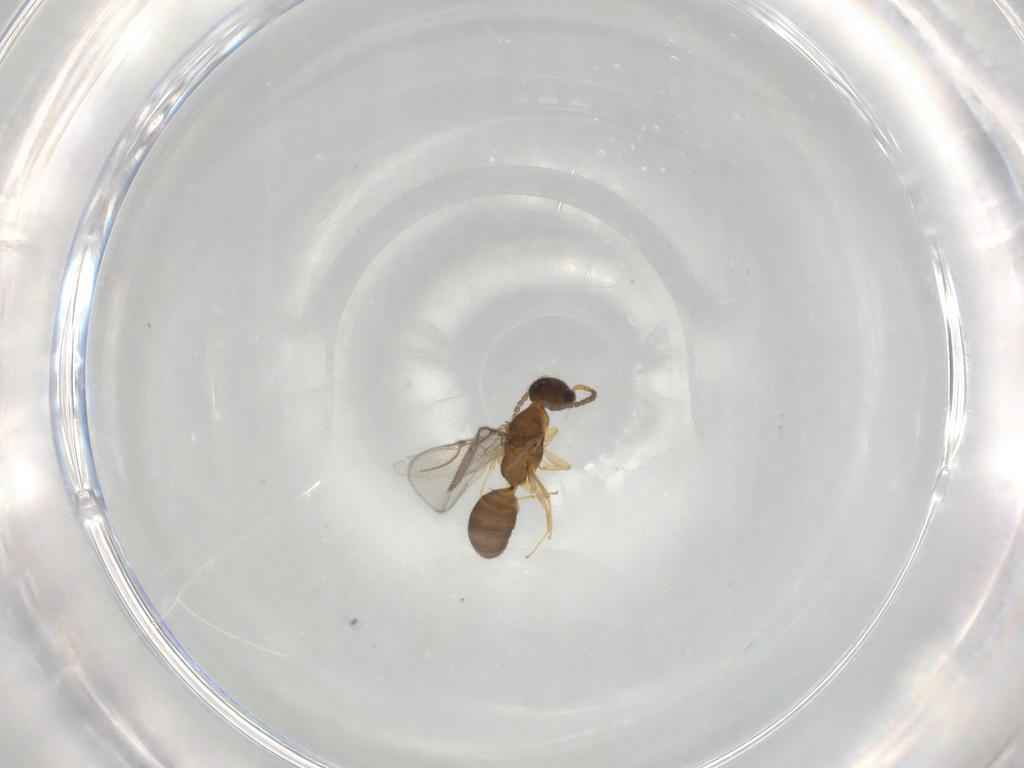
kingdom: Animalia
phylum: Arthropoda
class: Insecta
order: Hymenoptera
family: Bethylidae
